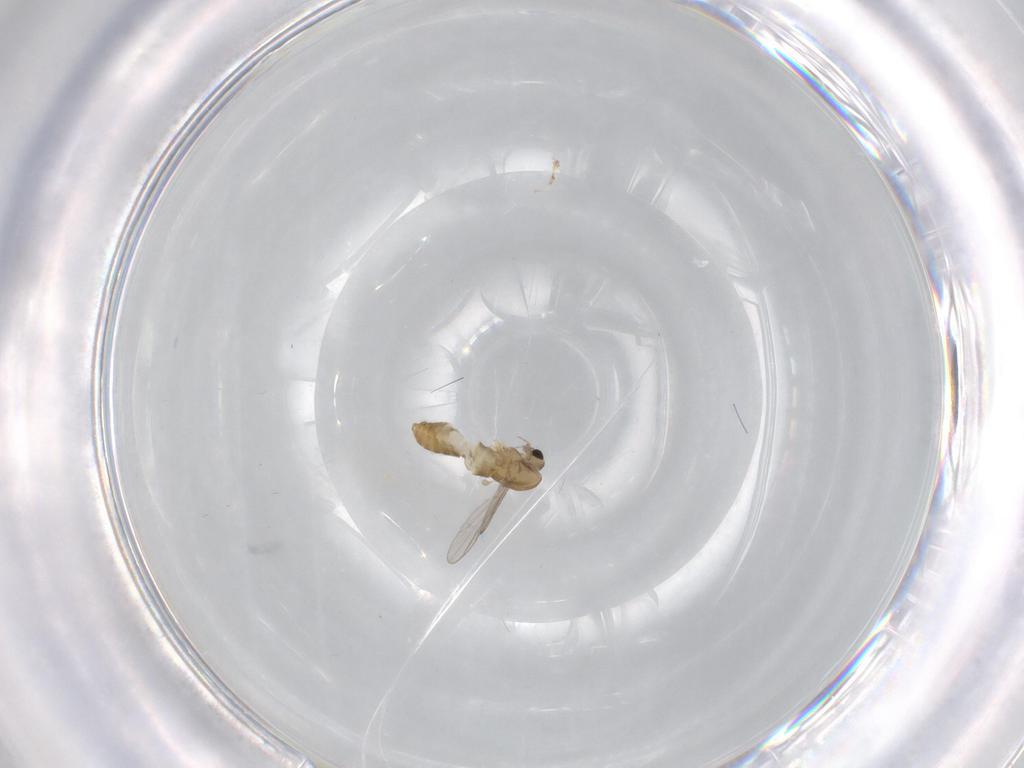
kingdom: Animalia
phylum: Arthropoda
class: Insecta
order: Diptera
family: Chironomidae
